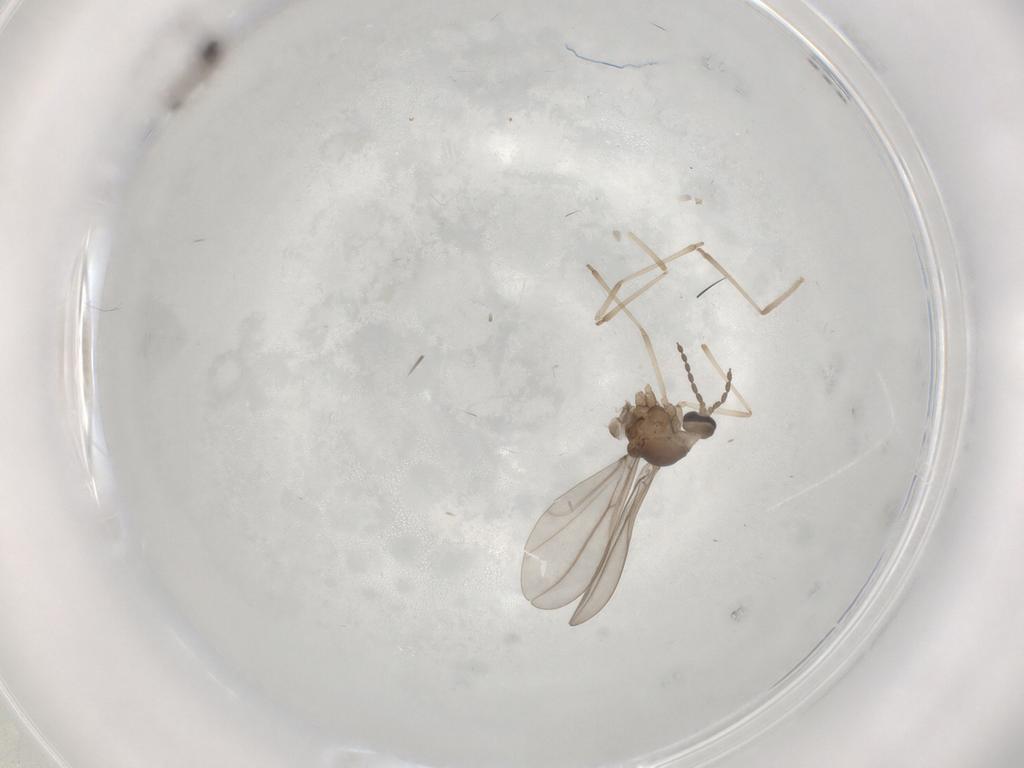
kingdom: Animalia
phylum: Arthropoda
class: Insecta
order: Diptera
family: Cecidomyiidae
